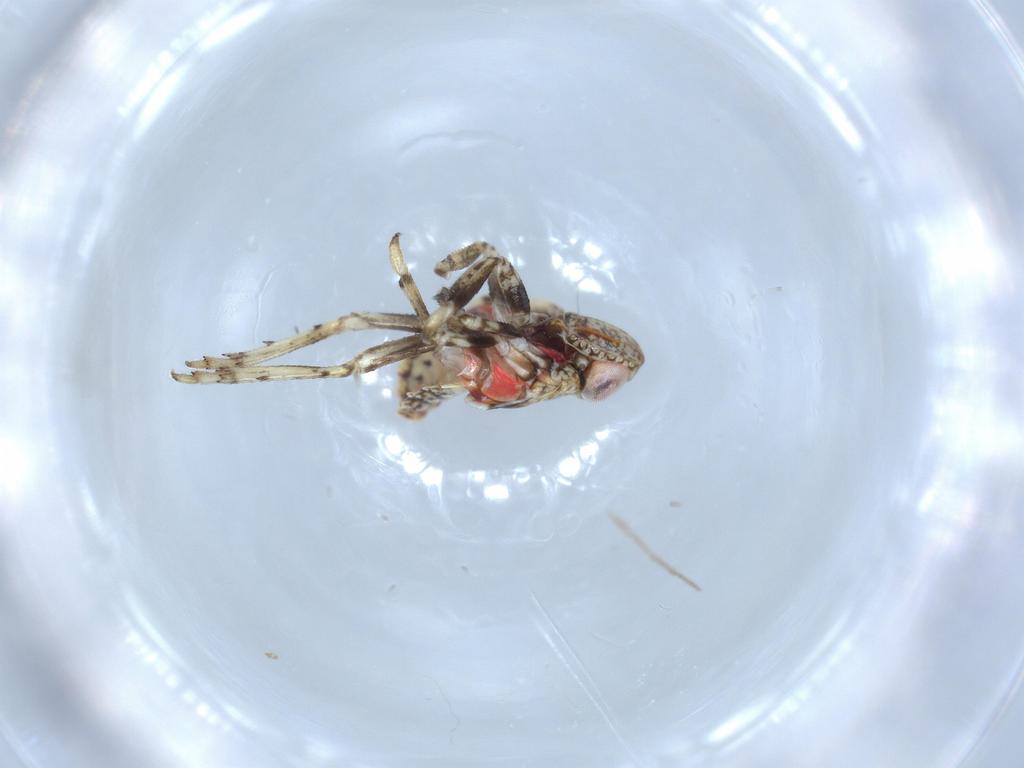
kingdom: Animalia
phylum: Arthropoda
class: Insecta
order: Hemiptera
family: Issidae
